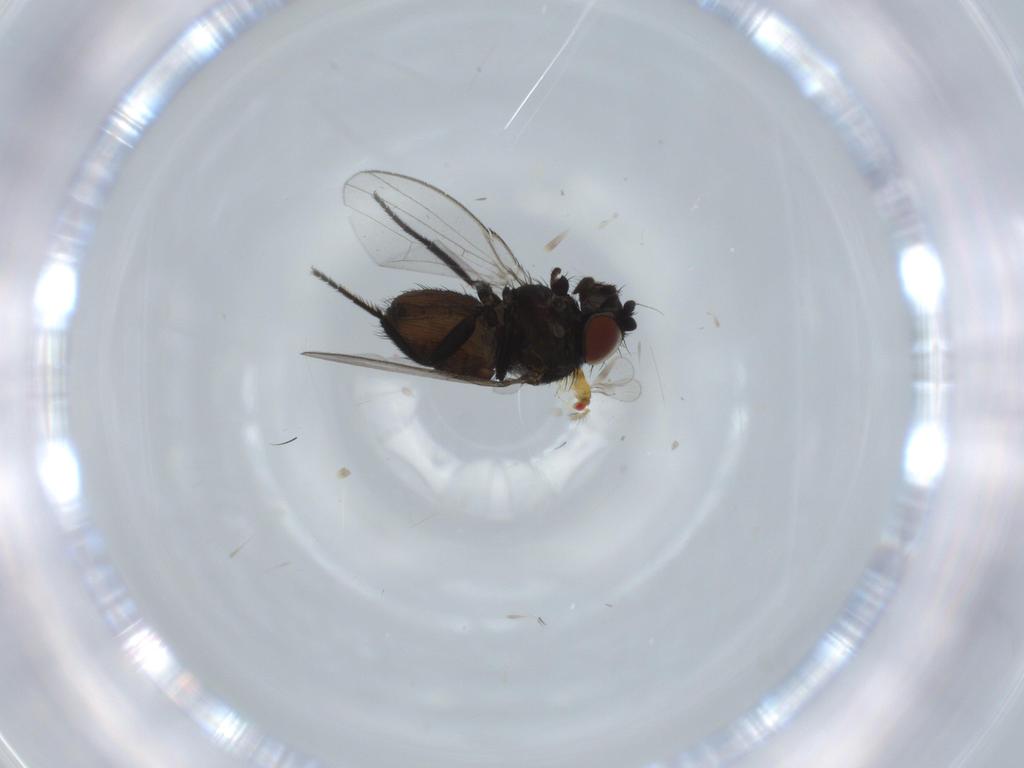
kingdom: Animalia
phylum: Arthropoda
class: Insecta
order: Diptera
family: Milichiidae
